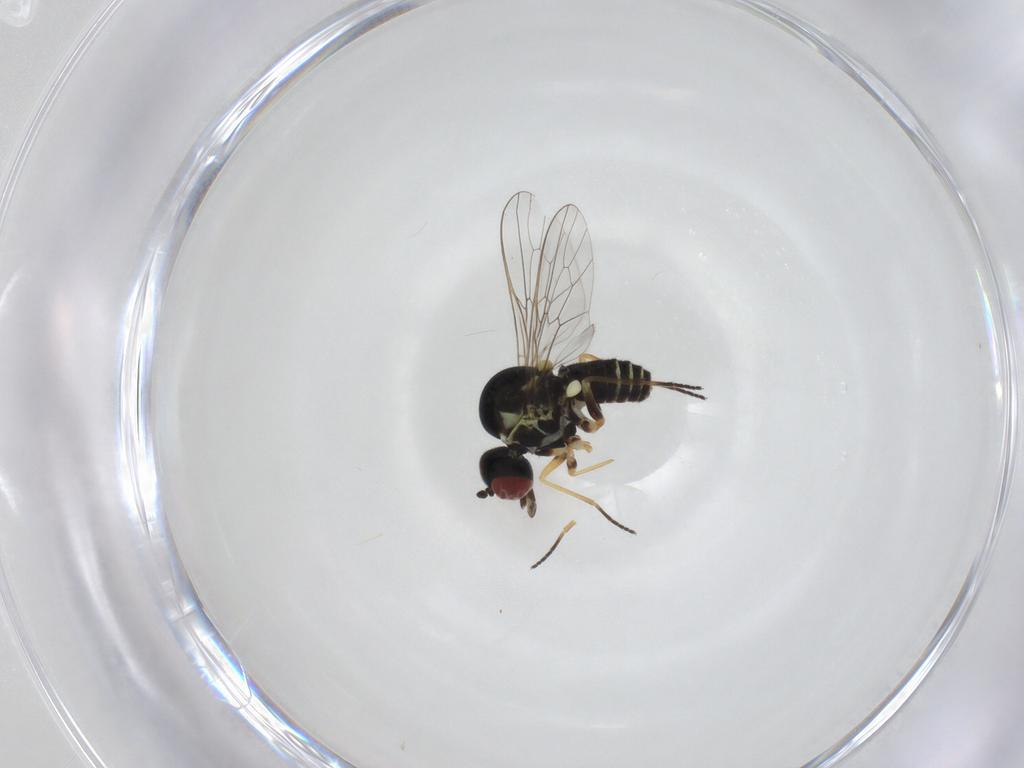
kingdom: Animalia
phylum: Arthropoda
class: Insecta
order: Diptera
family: Bombyliidae
